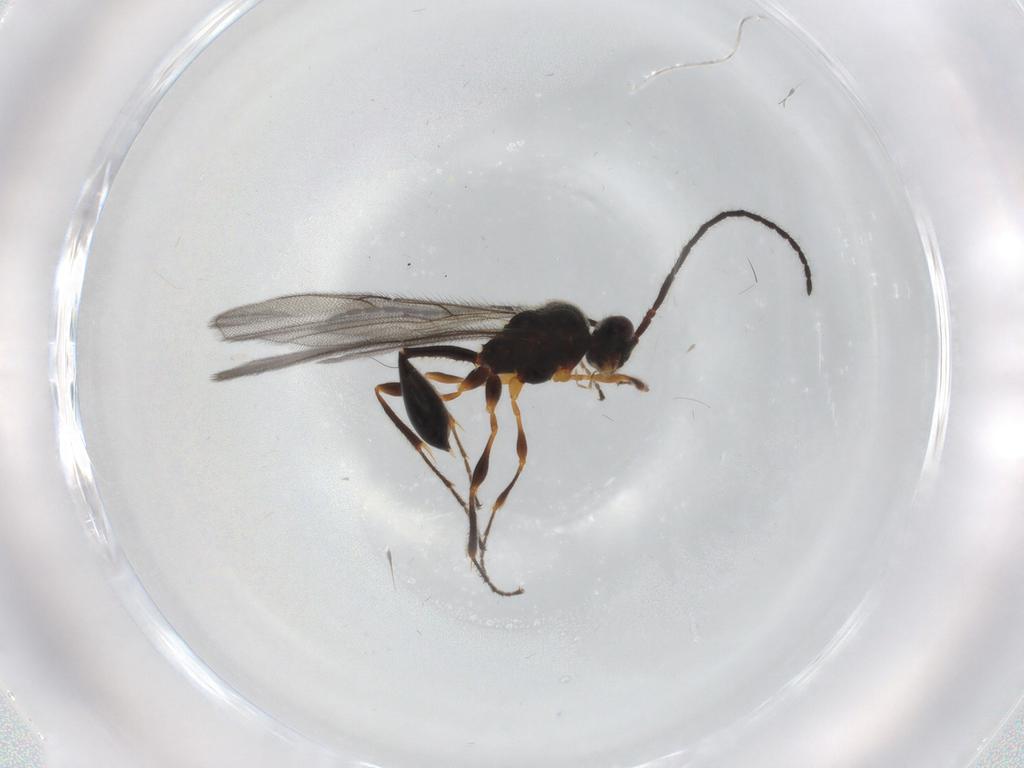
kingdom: Animalia
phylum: Arthropoda
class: Insecta
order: Hymenoptera
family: Diapriidae
